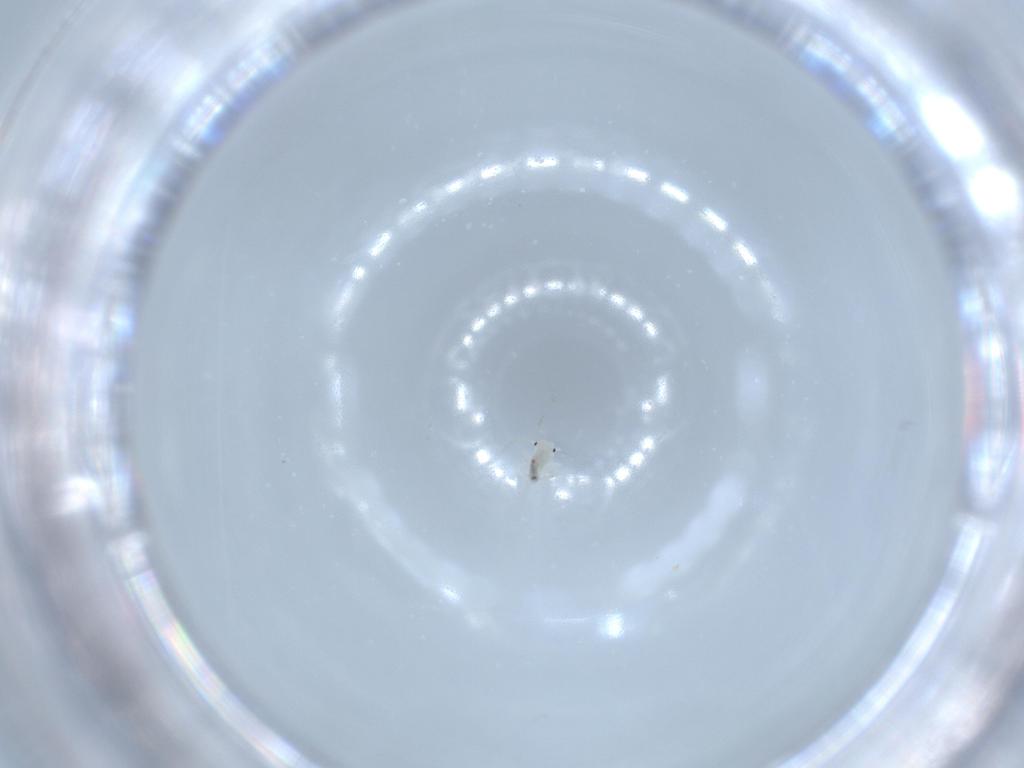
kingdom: Animalia
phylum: Arthropoda
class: Insecta
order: Psocodea
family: Caeciliusidae
